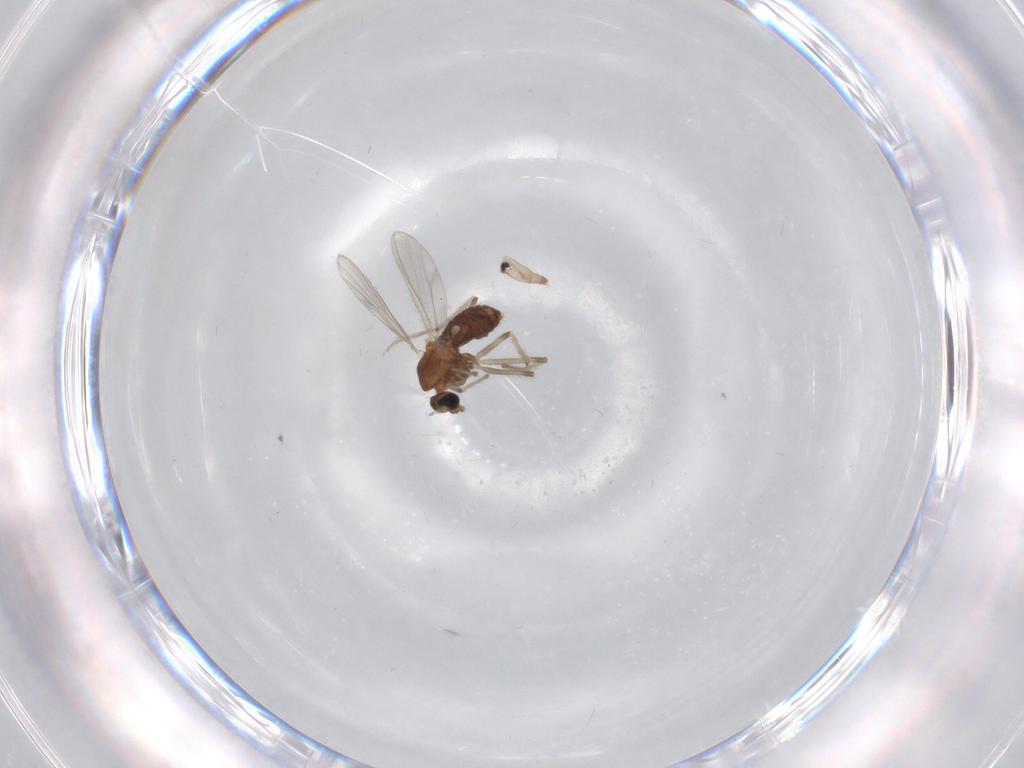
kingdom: Animalia
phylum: Arthropoda
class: Insecta
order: Diptera
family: Chironomidae
